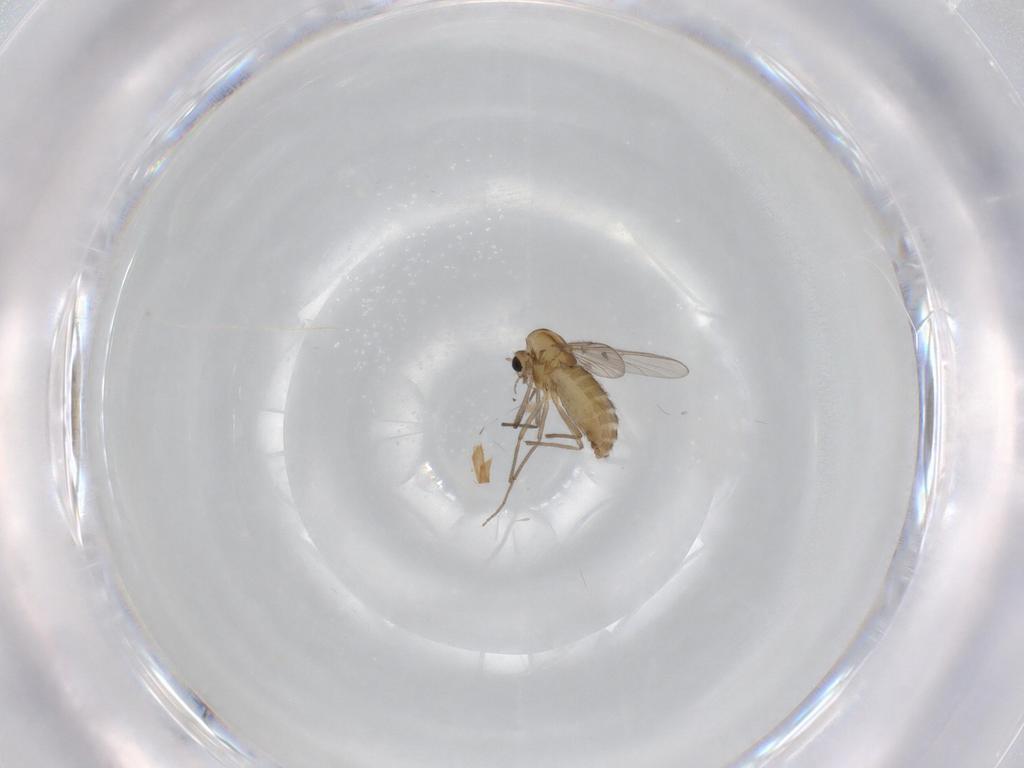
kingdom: Animalia
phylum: Arthropoda
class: Insecta
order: Diptera
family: Chironomidae
